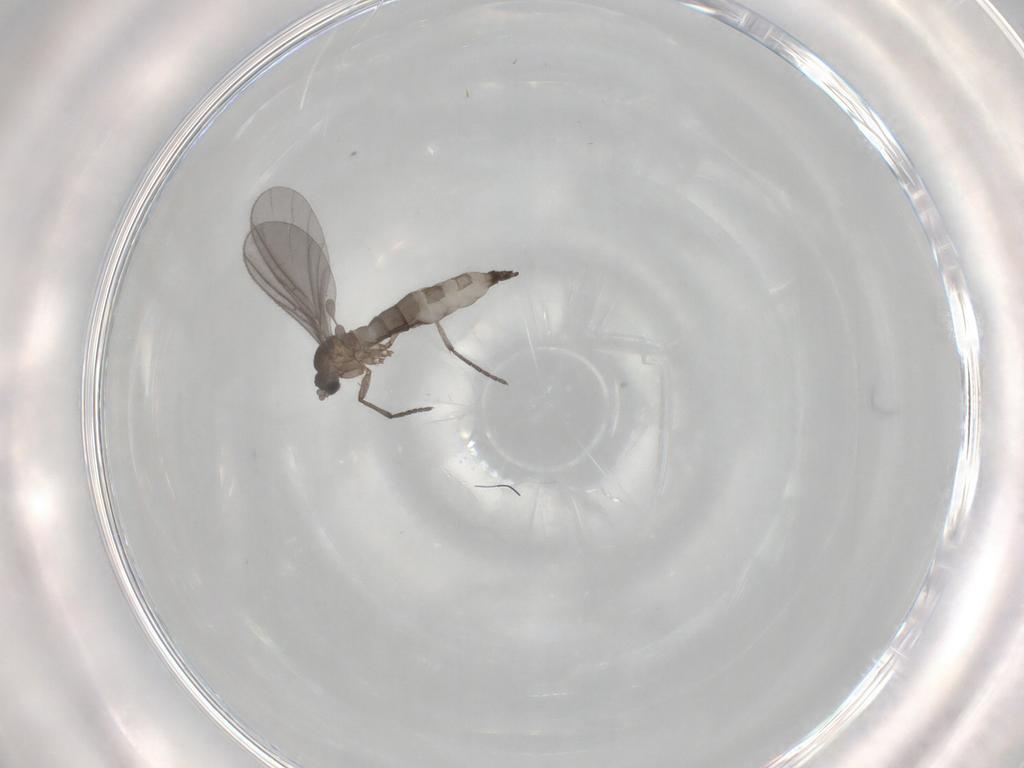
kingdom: Animalia
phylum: Arthropoda
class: Insecta
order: Diptera
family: Sciaridae
